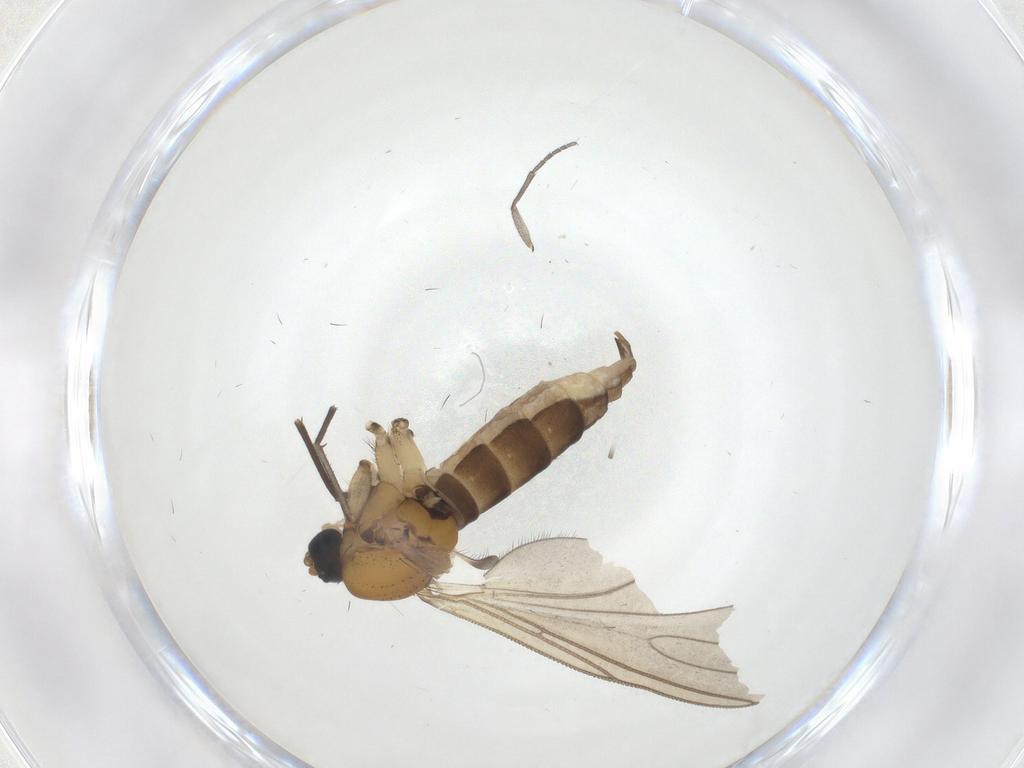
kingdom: Animalia
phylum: Arthropoda
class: Insecta
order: Diptera
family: Sciaridae
